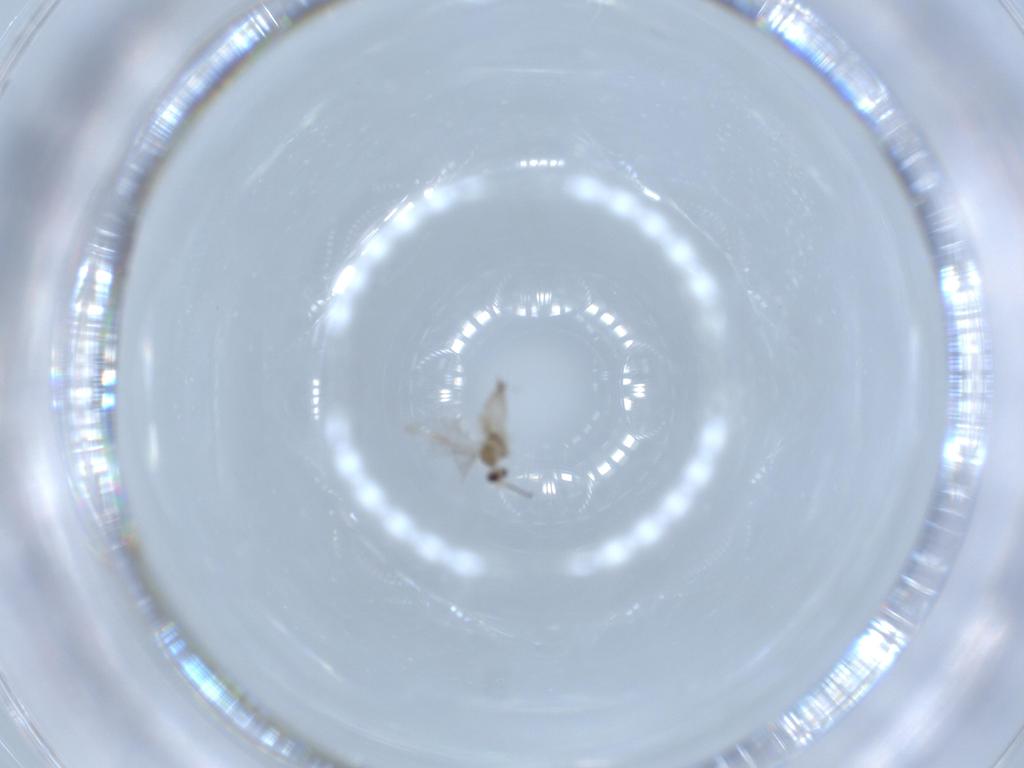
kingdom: Animalia
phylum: Arthropoda
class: Insecta
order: Diptera
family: Cecidomyiidae
